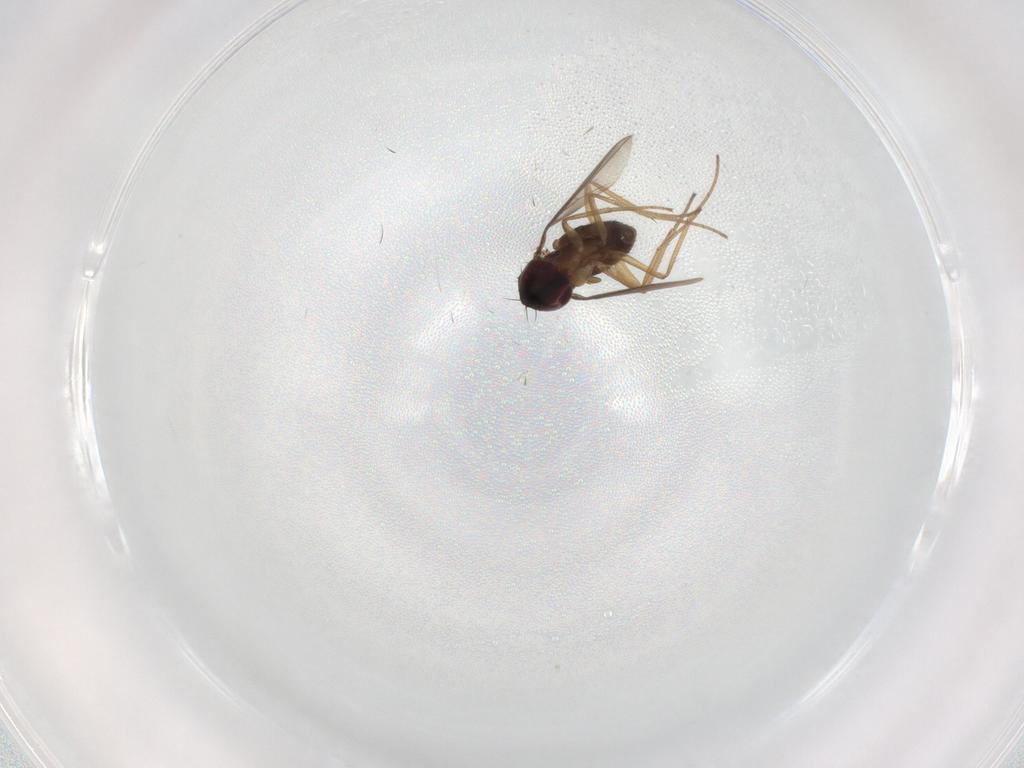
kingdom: Animalia
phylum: Arthropoda
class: Insecta
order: Diptera
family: Dolichopodidae
